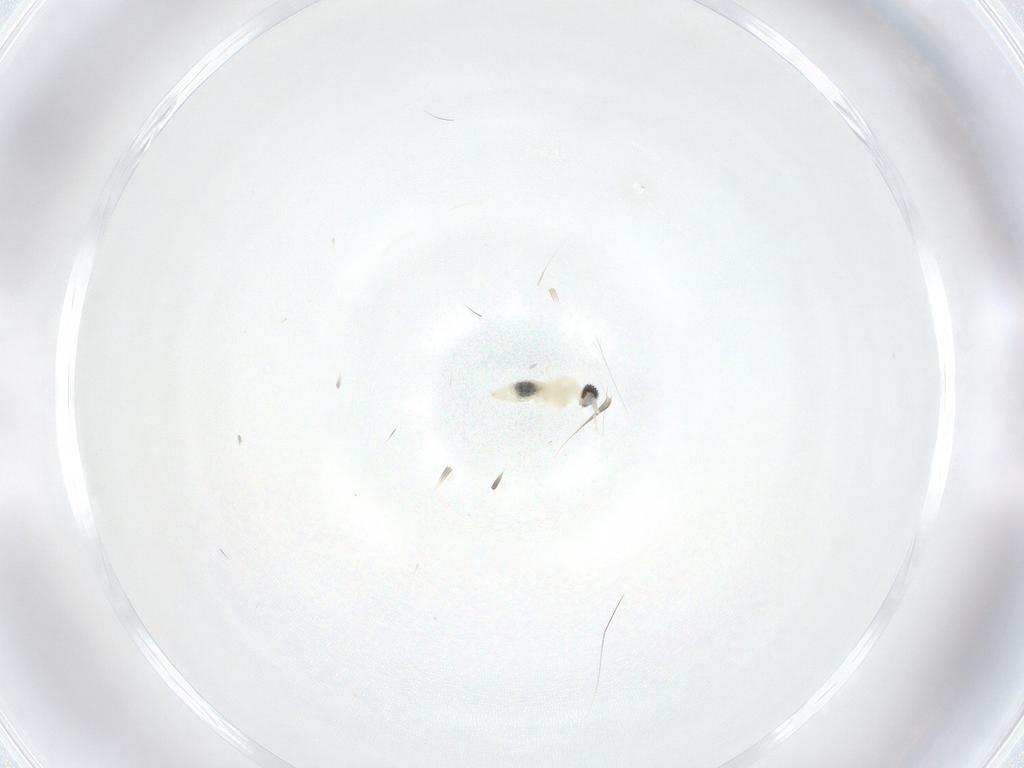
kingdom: Animalia
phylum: Arthropoda
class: Insecta
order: Diptera
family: Cecidomyiidae
